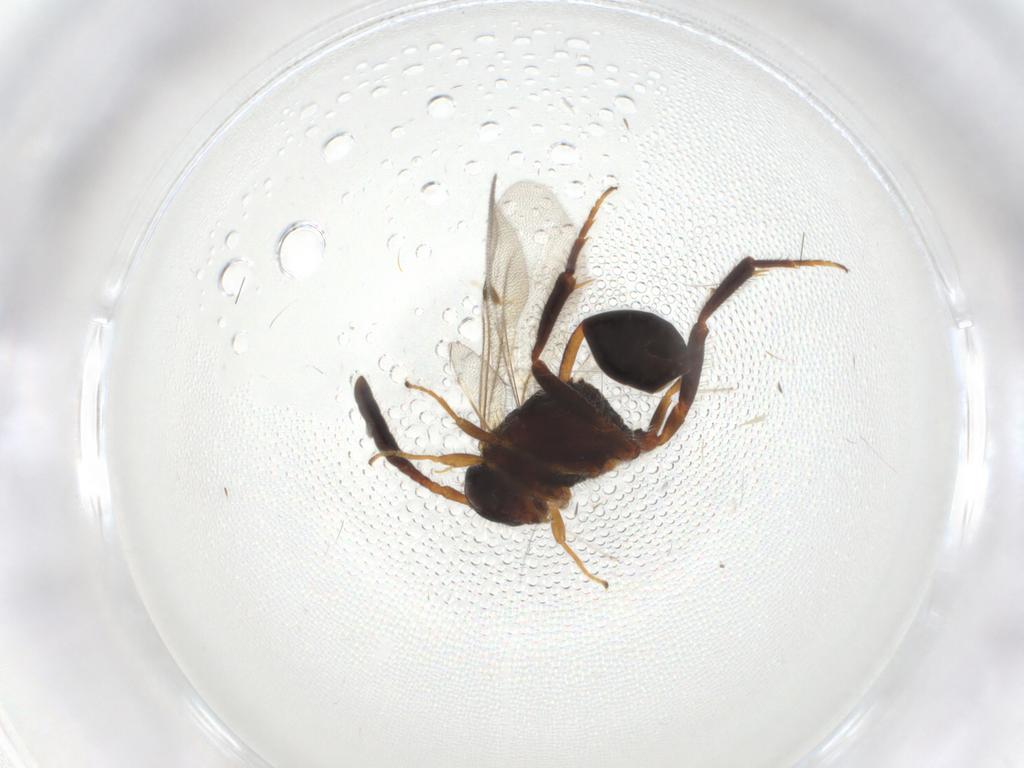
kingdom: Animalia
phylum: Arthropoda
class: Insecta
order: Hymenoptera
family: Evaniidae
